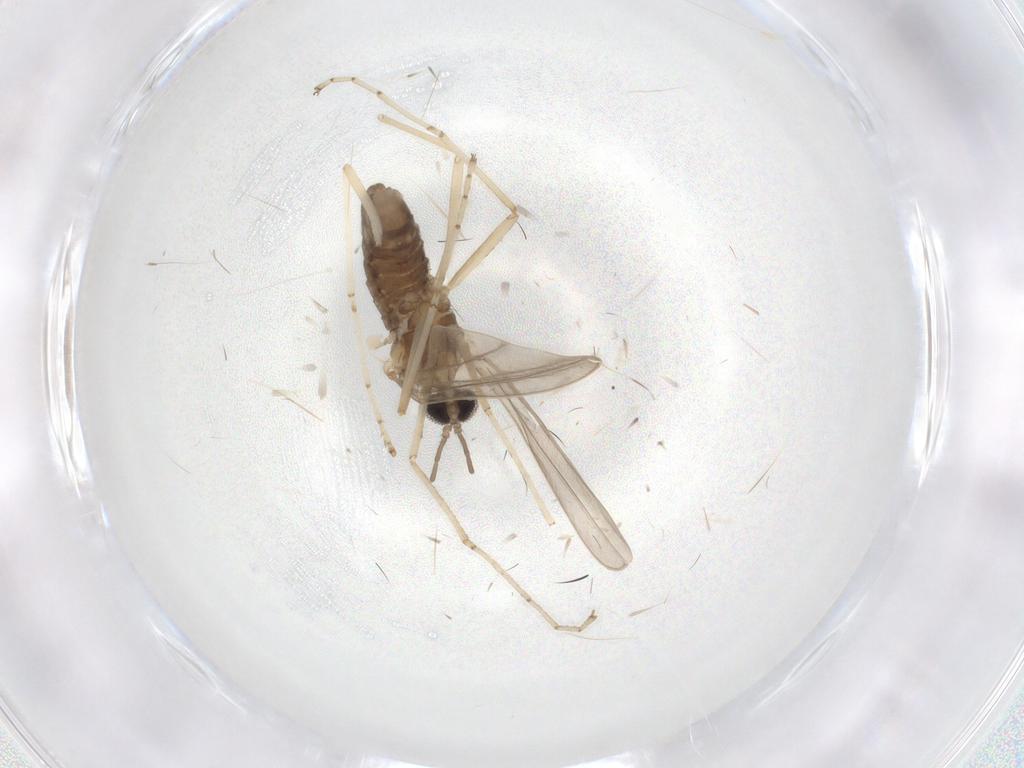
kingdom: Animalia
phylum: Arthropoda
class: Insecta
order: Diptera
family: Cecidomyiidae
